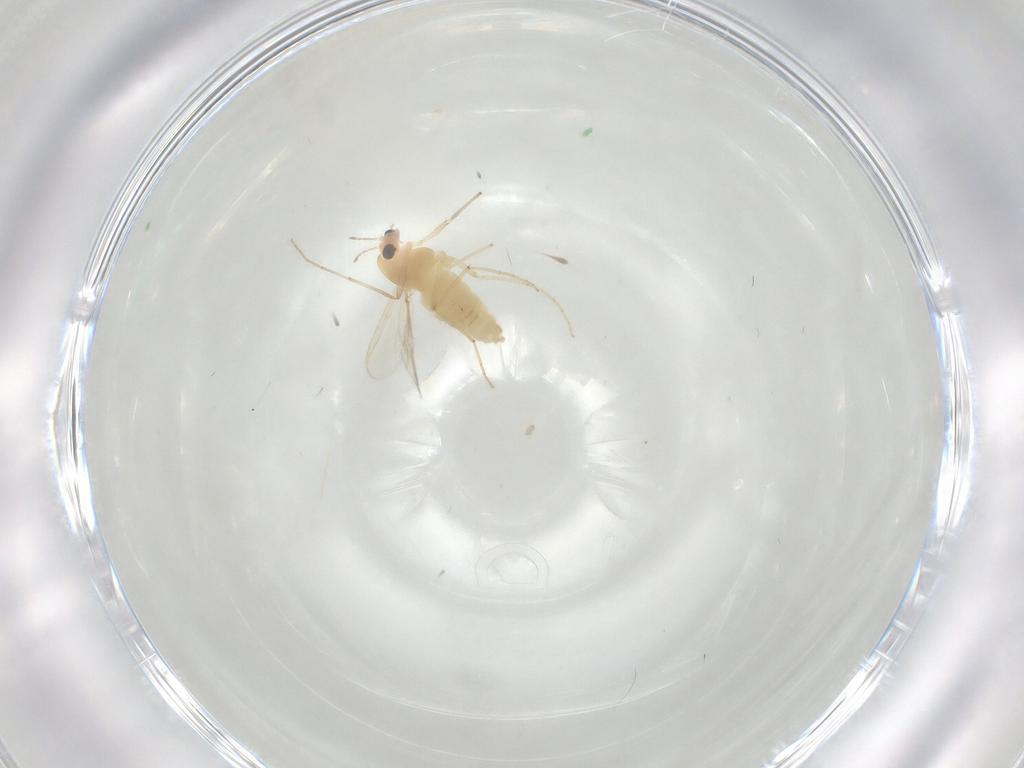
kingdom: Animalia
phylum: Arthropoda
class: Insecta
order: Diptera
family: Chironomidae
